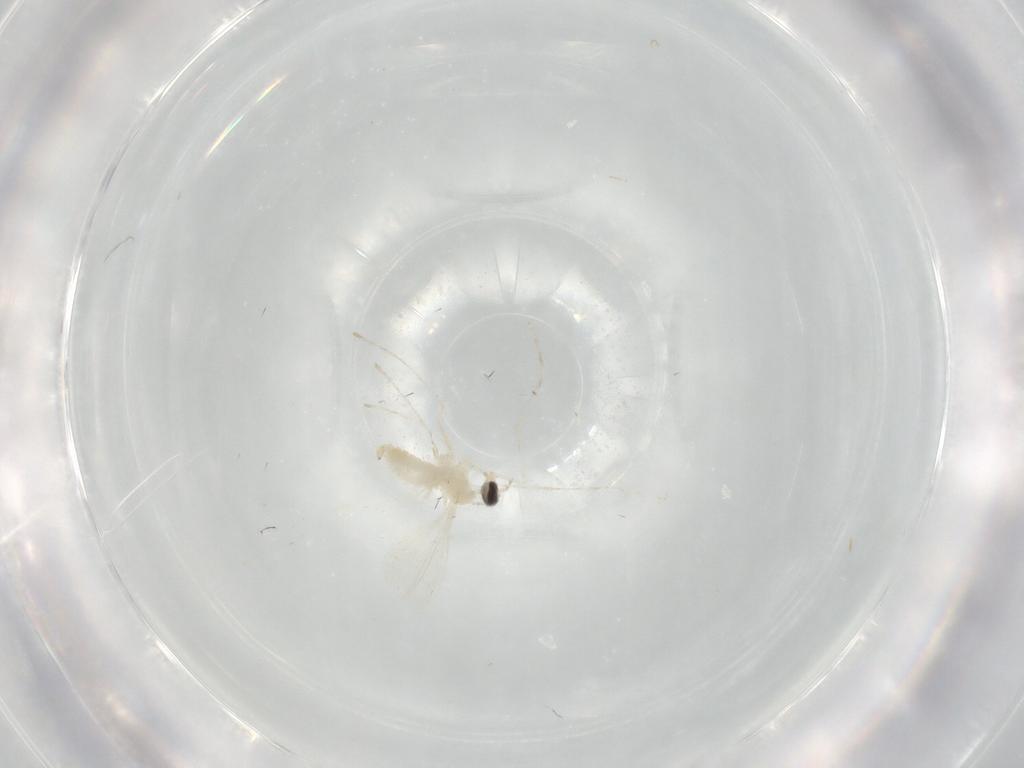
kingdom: Animalia
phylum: Arthropoda
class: Insecta
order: Diptera
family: Cecidomyiidae
